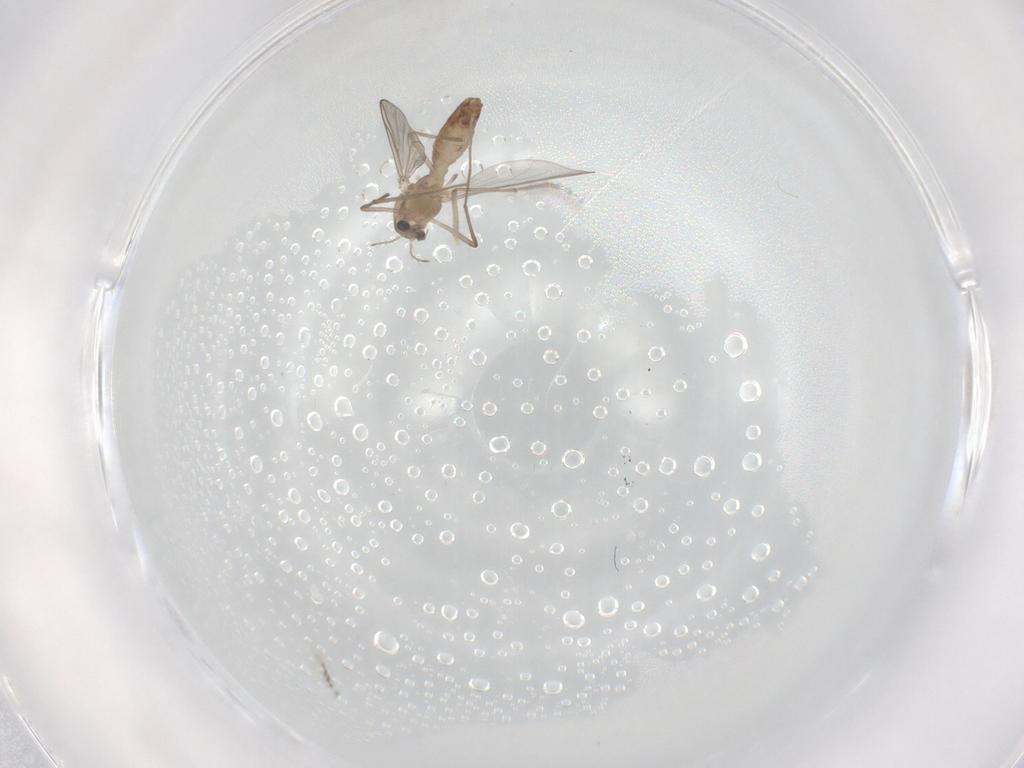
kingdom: Animalia
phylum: Arthropoda
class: Insecta
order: Diptera
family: Chironomidae
